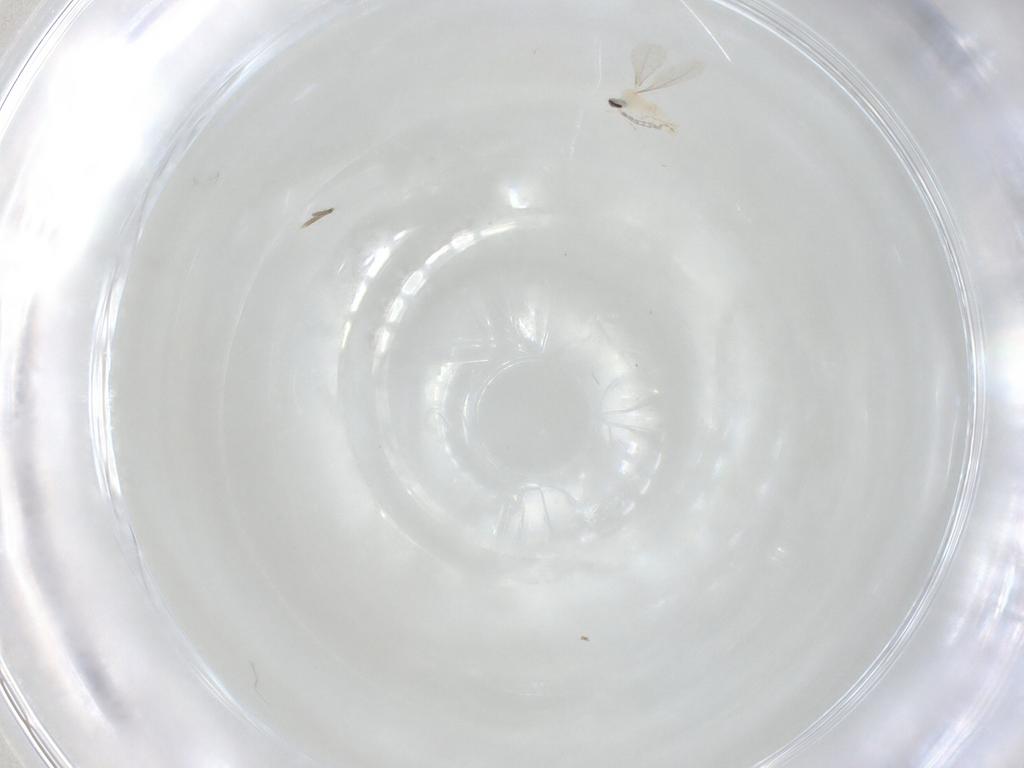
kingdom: Animalia
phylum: Arthropoda
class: Insecta
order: Diptera
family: Cecidomyiidae
